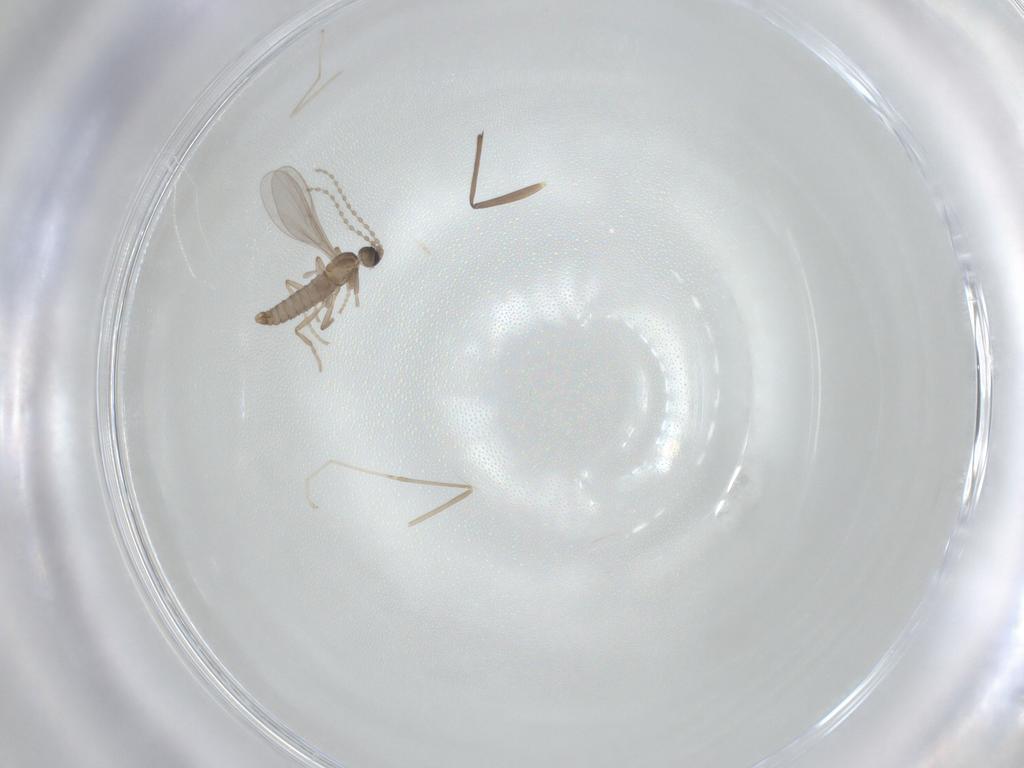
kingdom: Animalia
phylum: Arthropoda
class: Insecta
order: Diptera
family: Cecidomyiidae
